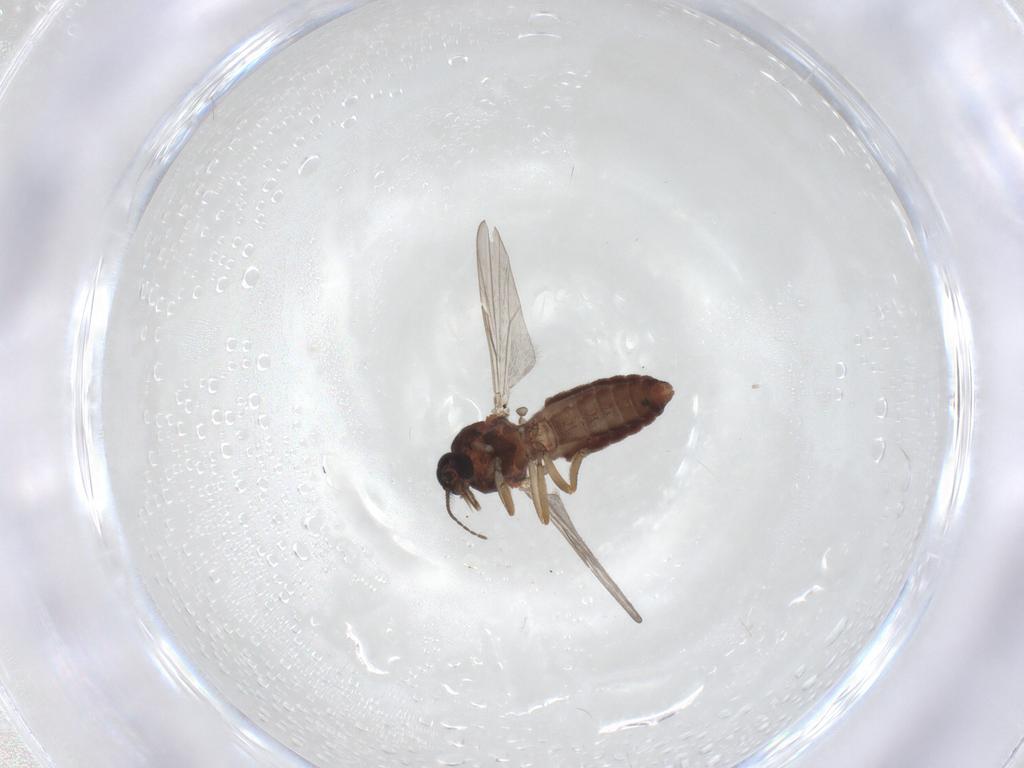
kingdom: Animalia
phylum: Arthropoda
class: Insecta
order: Diptera
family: Ceratopogonidae
